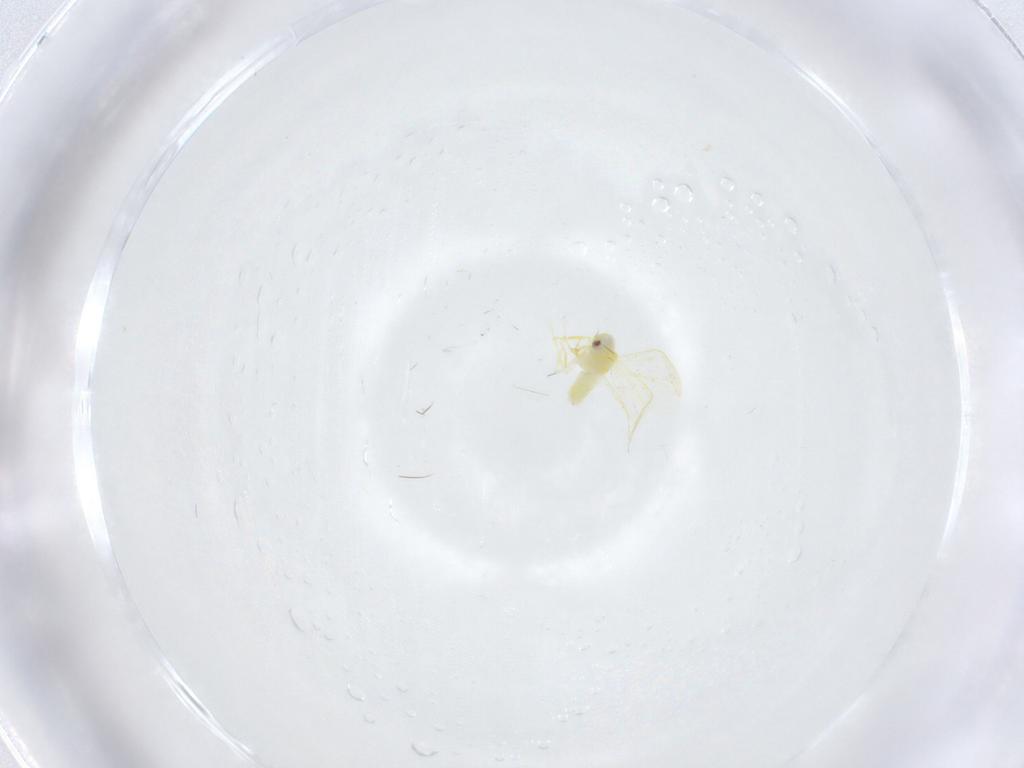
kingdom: Animalia
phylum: Arthropoda
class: Insecta
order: Hemiptera
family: Aleyrodidae
